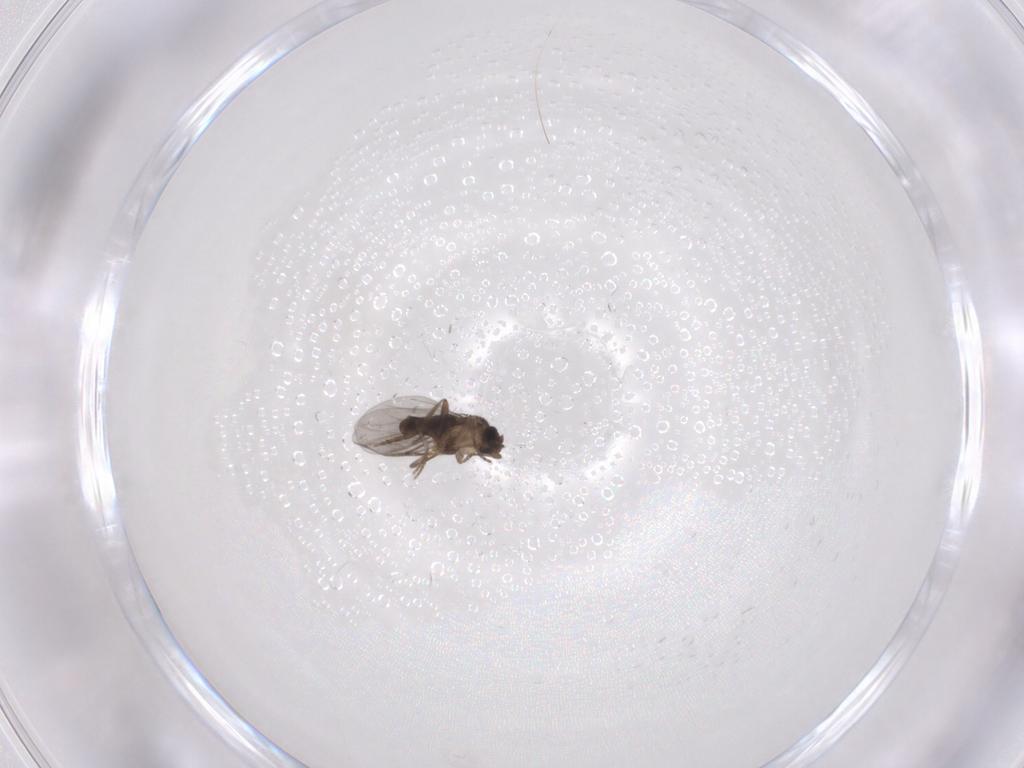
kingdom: Animalia
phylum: Arthropoda
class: Insecta
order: Diptera
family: Sciaridae
